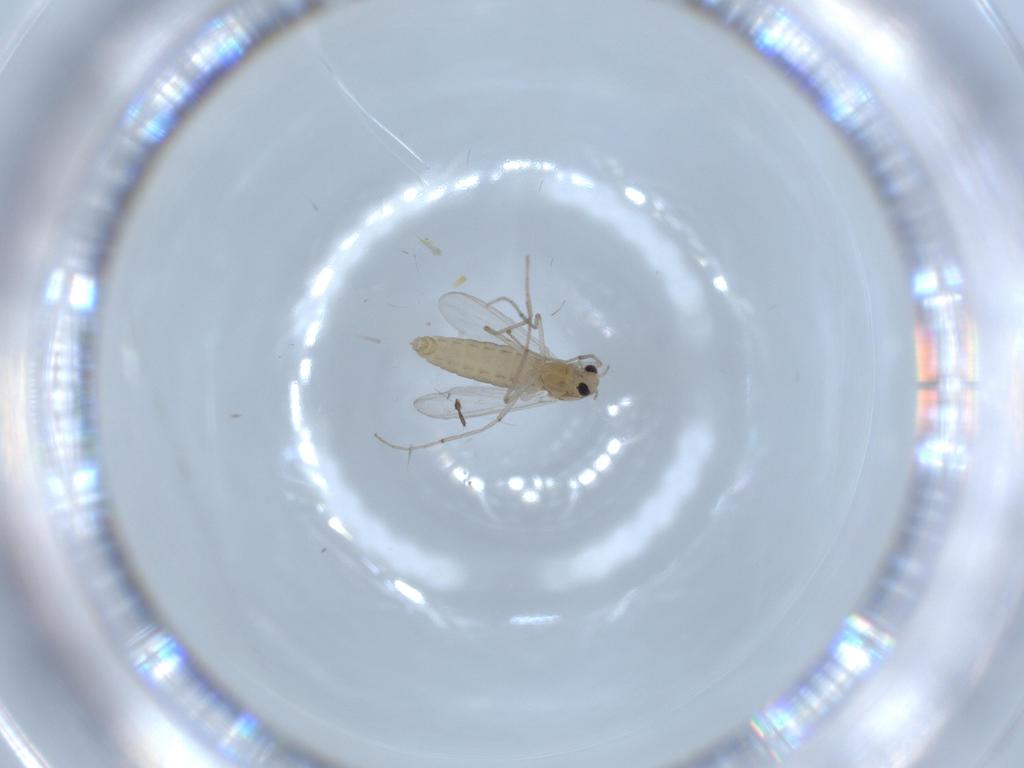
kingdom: Animalia
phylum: Arthropoda
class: Insecta
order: Diptera
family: Chironomidae
